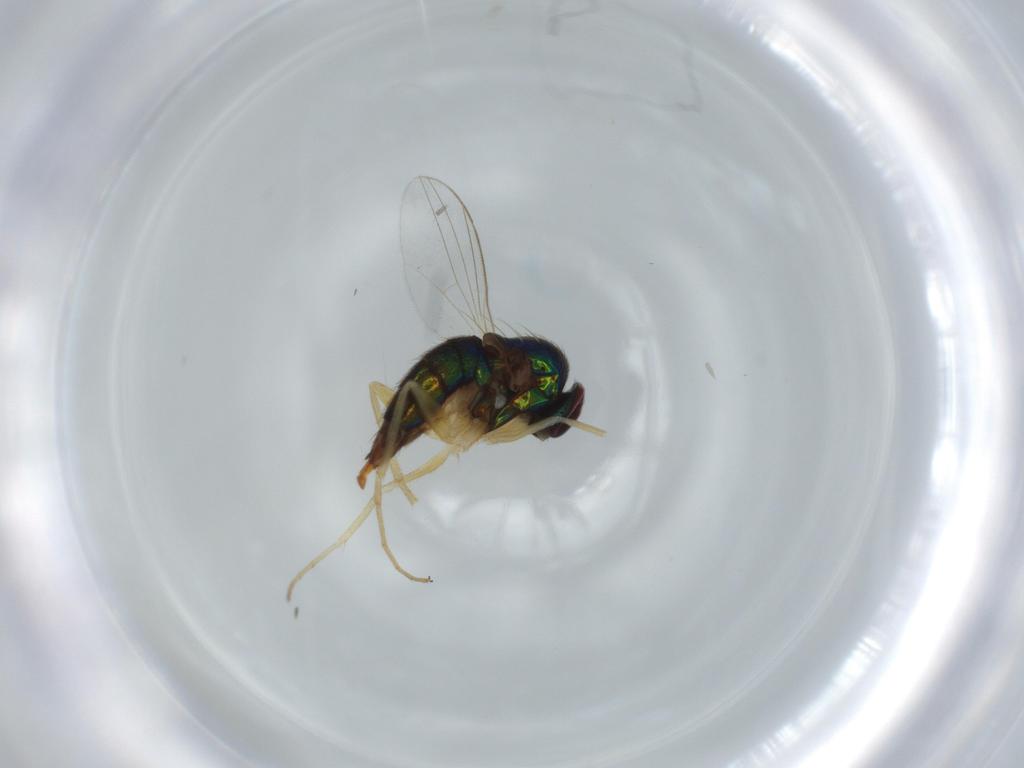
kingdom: Animalia
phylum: Arthropoda
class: Insecta
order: Diptera
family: Dolichopodidae
